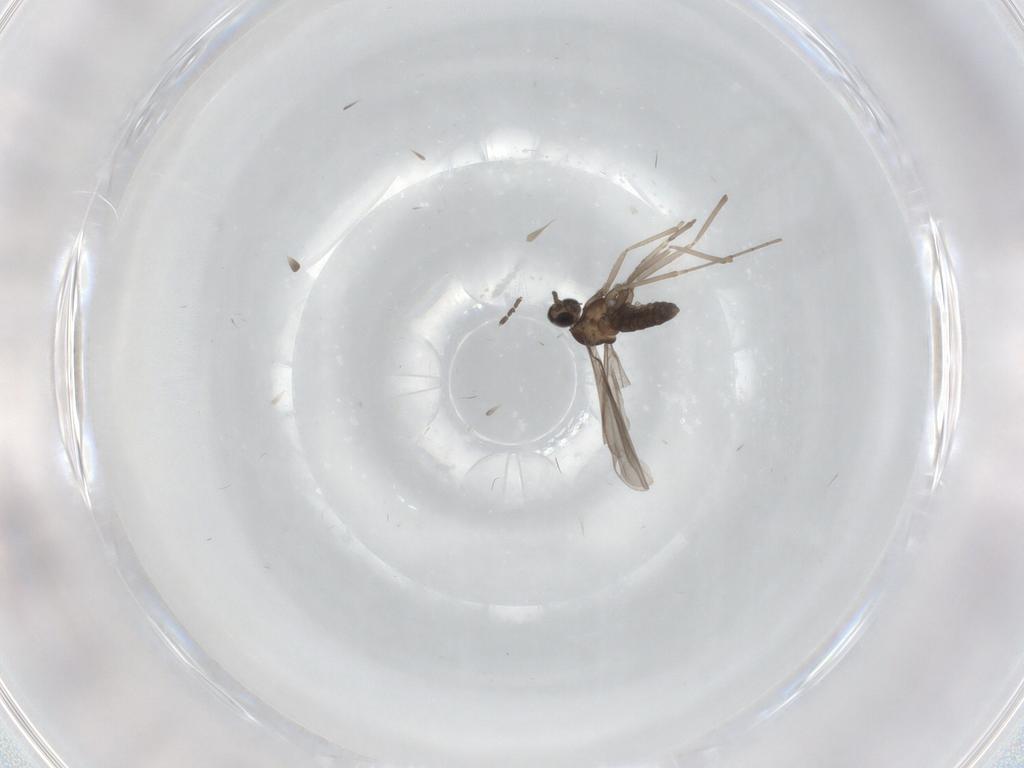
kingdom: Animalia
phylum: Arthropoda
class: Insecta
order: Diptera
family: Cecidomyiidae
